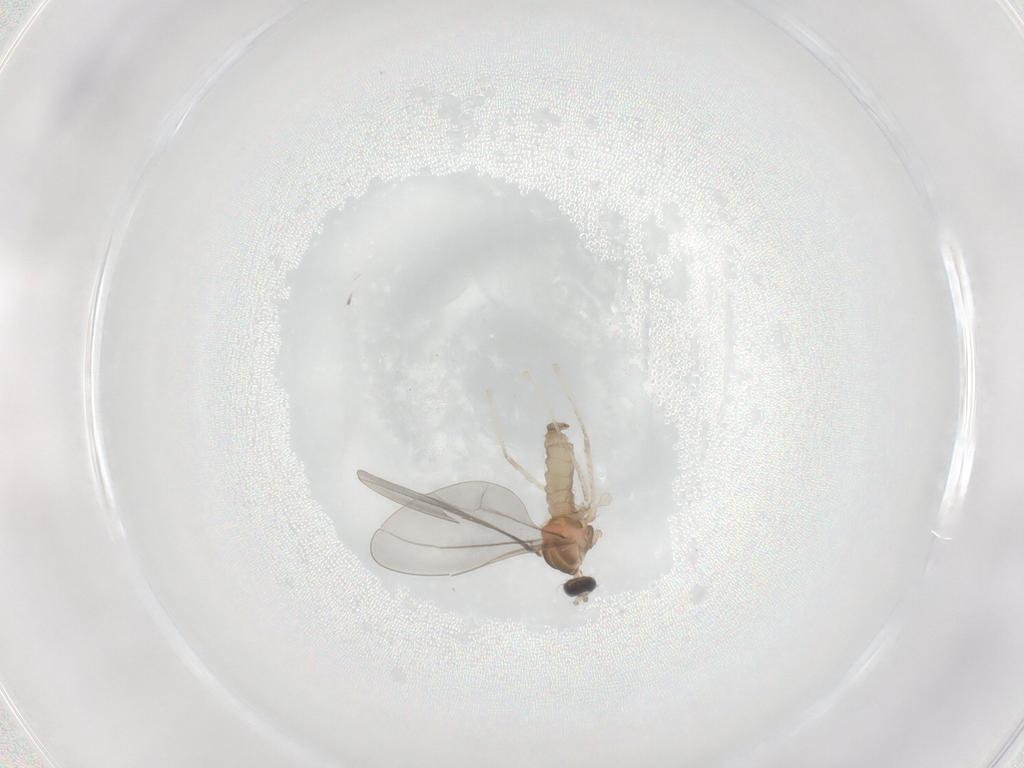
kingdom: Animalia
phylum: Arthropoda
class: Insecta
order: Diptera
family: Cecidomyiidae
